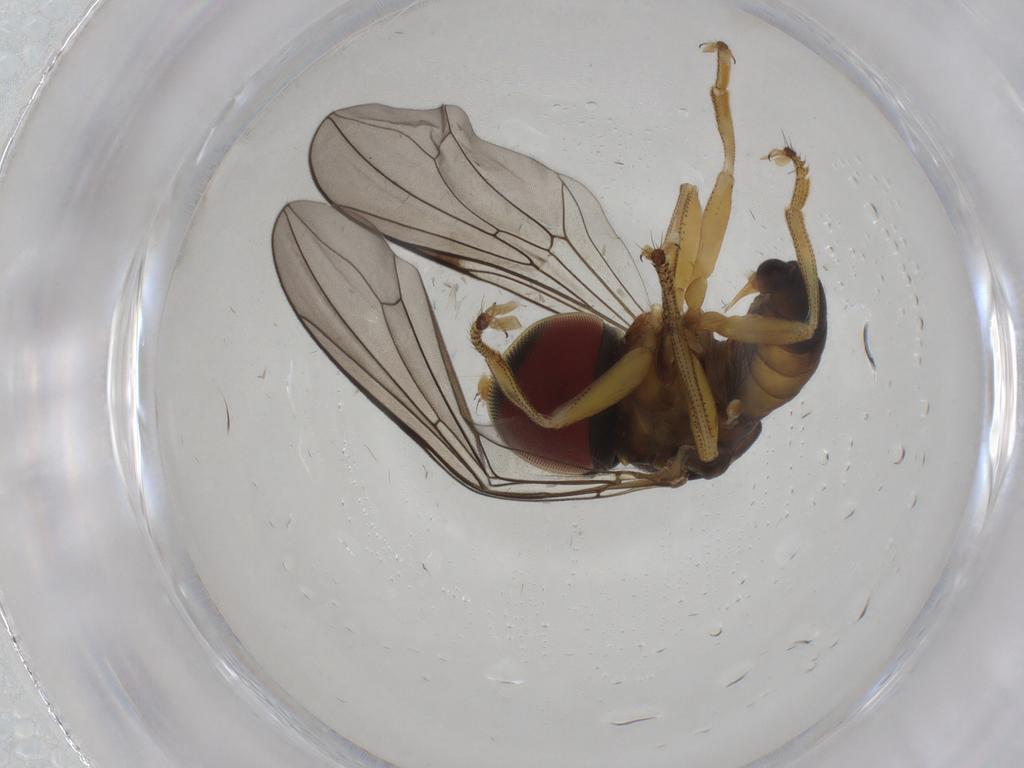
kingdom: Animalia
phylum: Arthropoda
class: Insecta
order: Diptera
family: Pipunculidae
